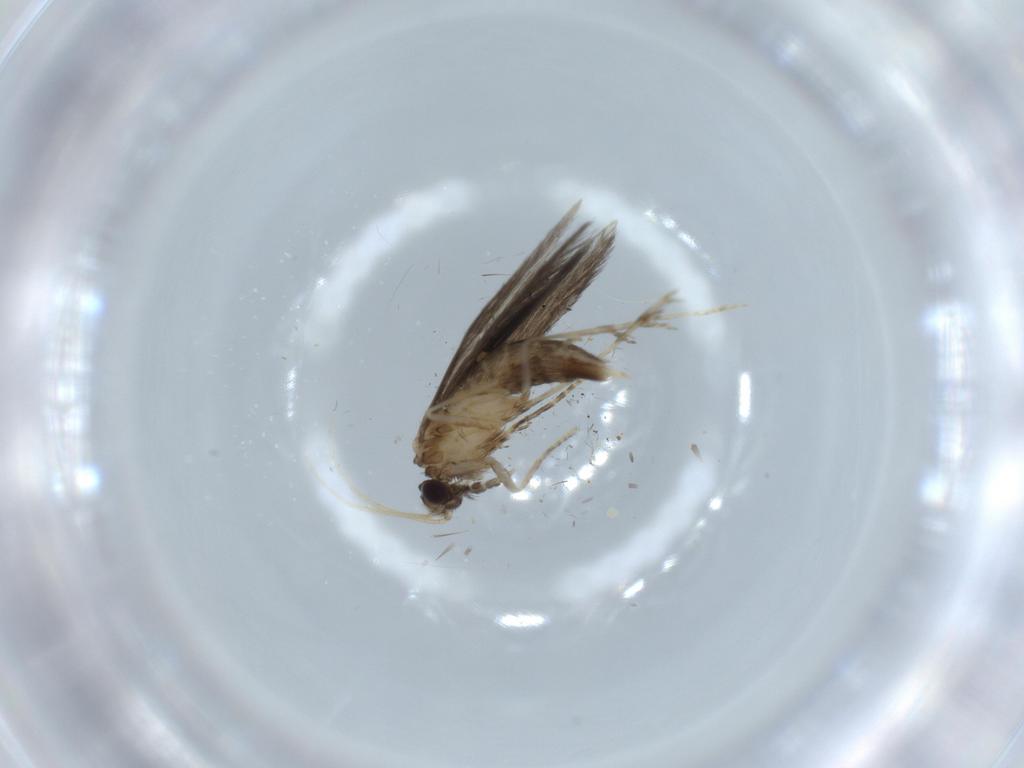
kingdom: Animalia
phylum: Arthropoda
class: Insecta
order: Trichoptera
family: Hydroptilidae
